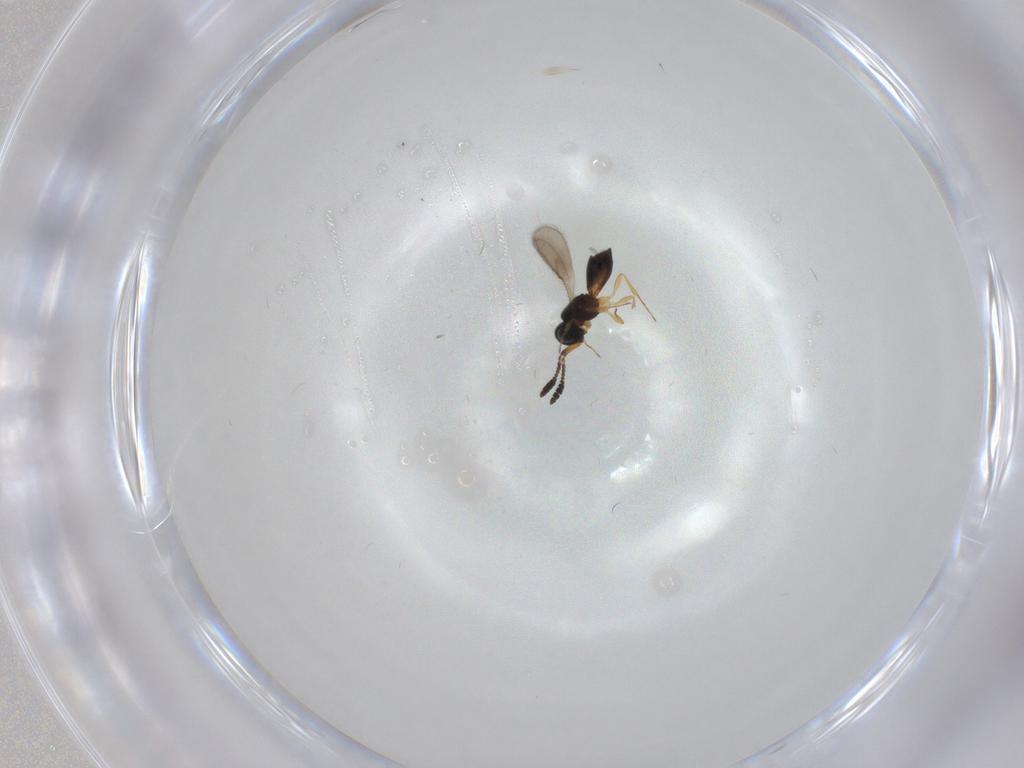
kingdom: Animalia
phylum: Arthropoda
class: Insecta
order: Hymenoptera
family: Scelionidae
